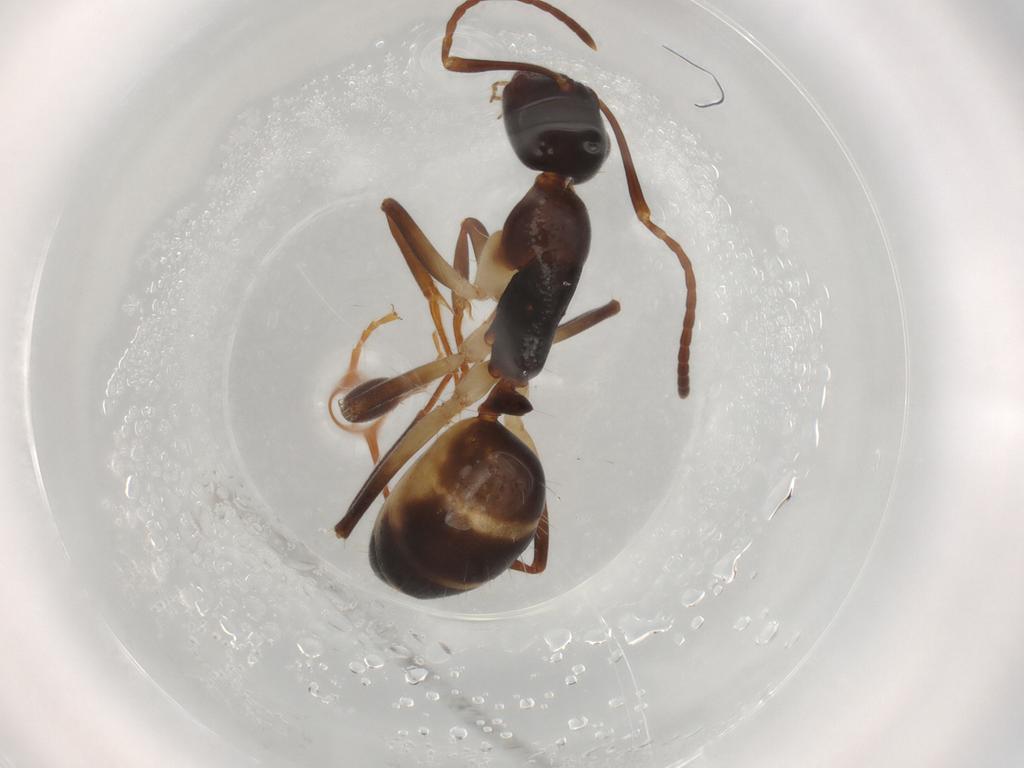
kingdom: Animalia
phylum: Arthropoda
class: Insecta
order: Hymenoptera
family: Formicidae
